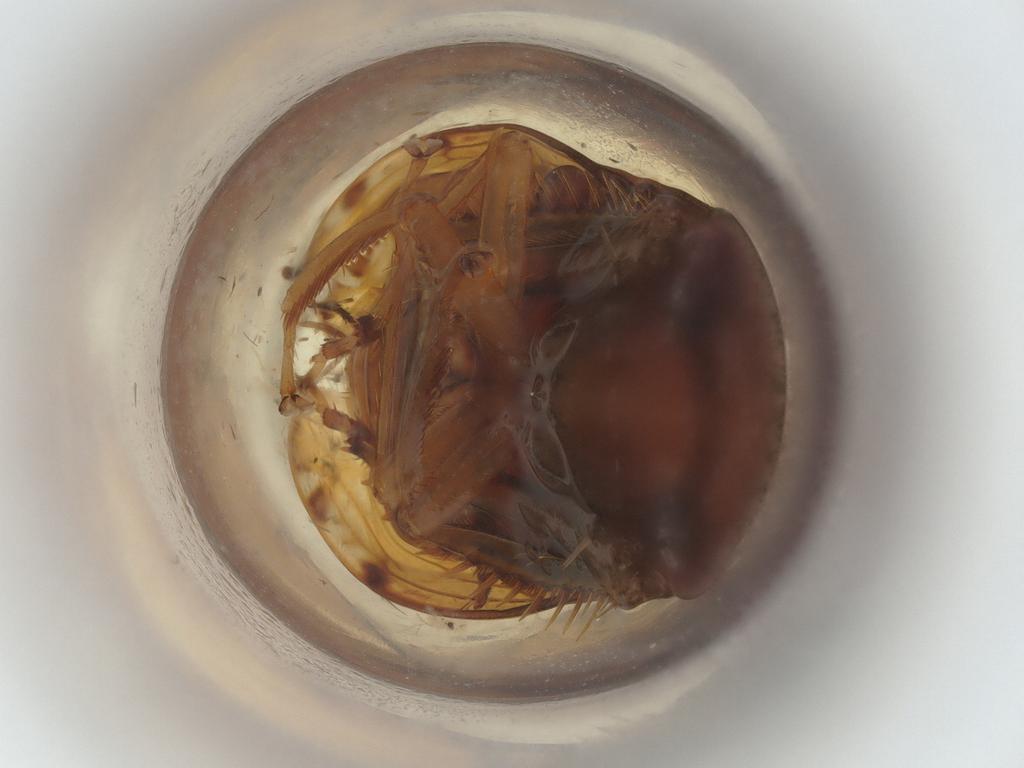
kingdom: Animalia
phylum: Arthropoda
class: Insecta
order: Hemiptera
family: Cicadellidae
